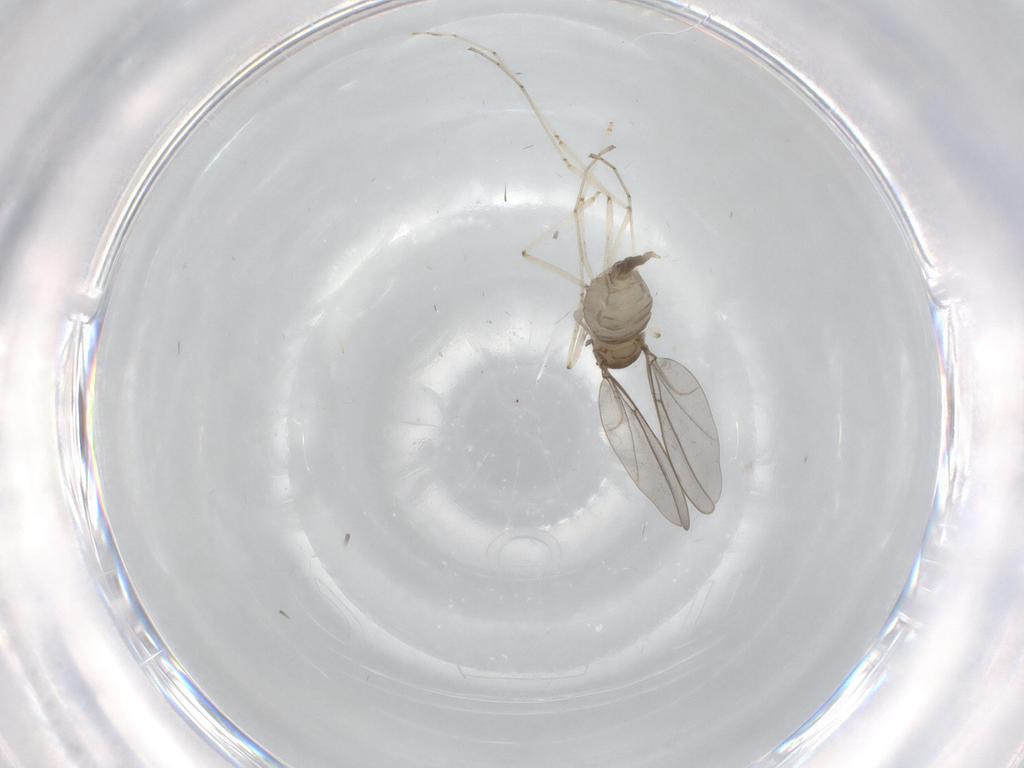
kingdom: Animalia
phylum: Arthropoda
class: Insecta
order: Diptera
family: Cecidomyiidae
